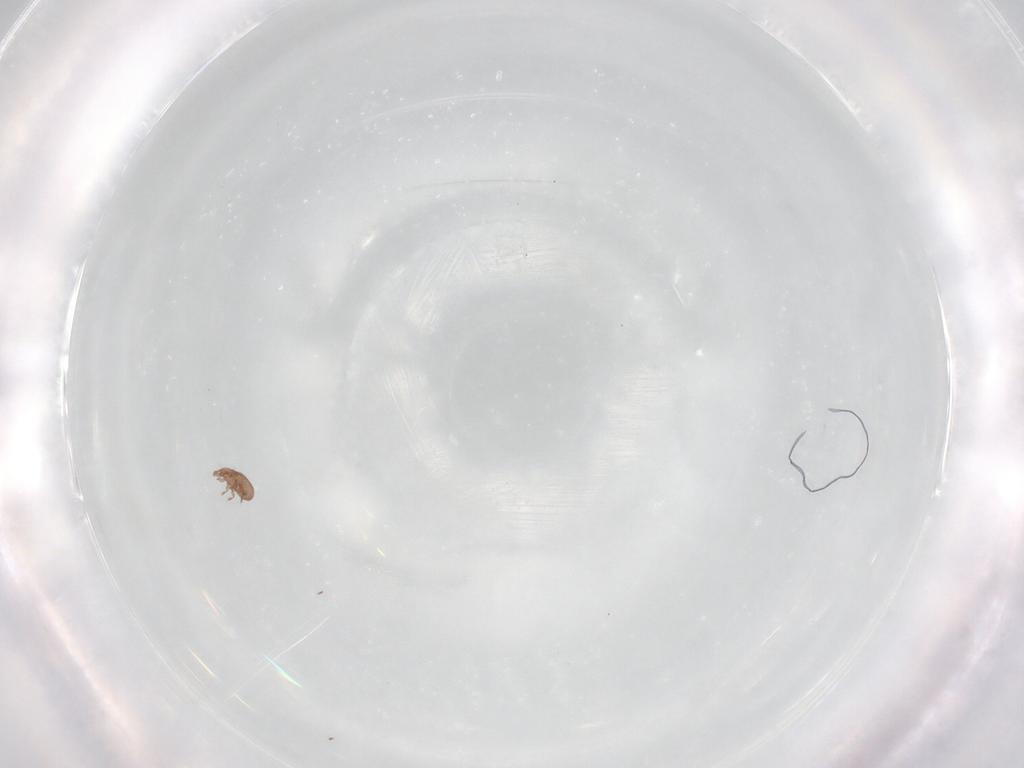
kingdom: Animalia
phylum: Arthropoda
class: Arachnida
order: Sarcoptiformes
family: Eremaeidae
